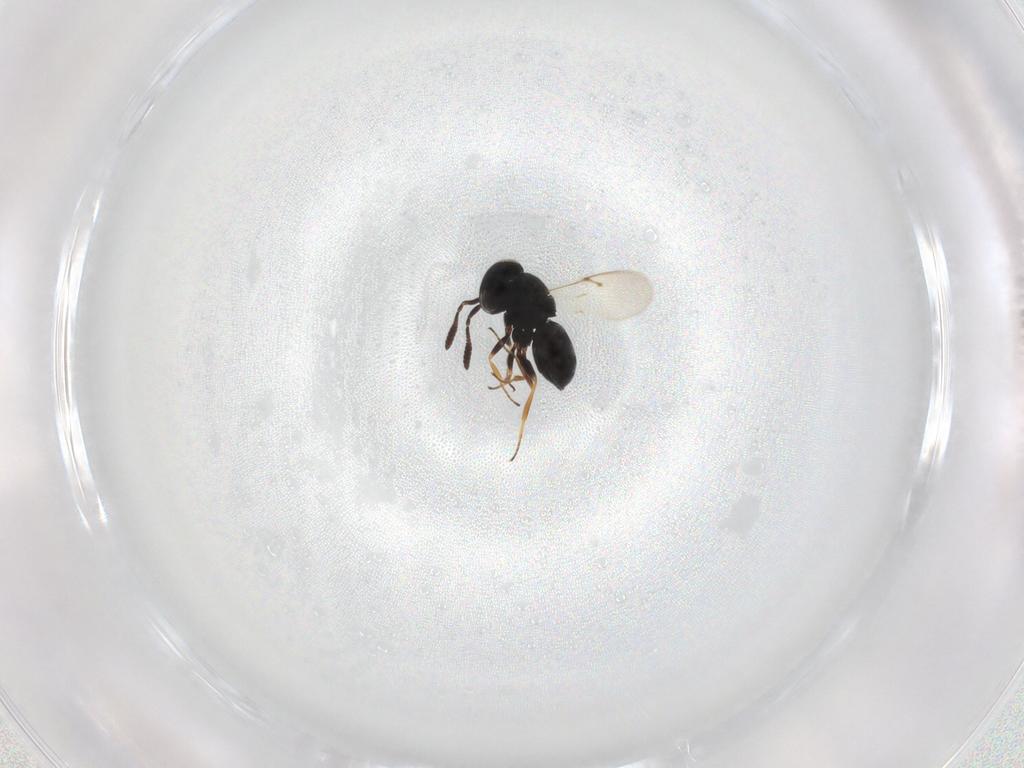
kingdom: Animalia
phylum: Arthropoda
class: Insecta
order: Hymenoptera
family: Scelionidae
